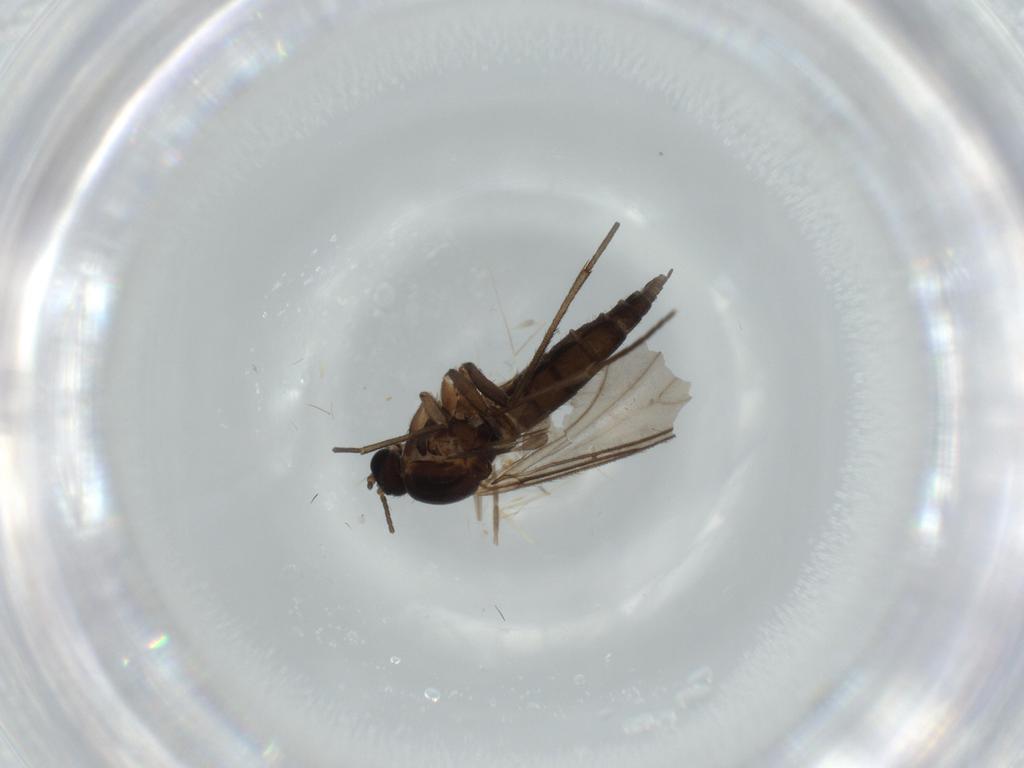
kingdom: Animalia
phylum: Arthropoda
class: Insecta
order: Diptera
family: Sciaridae
